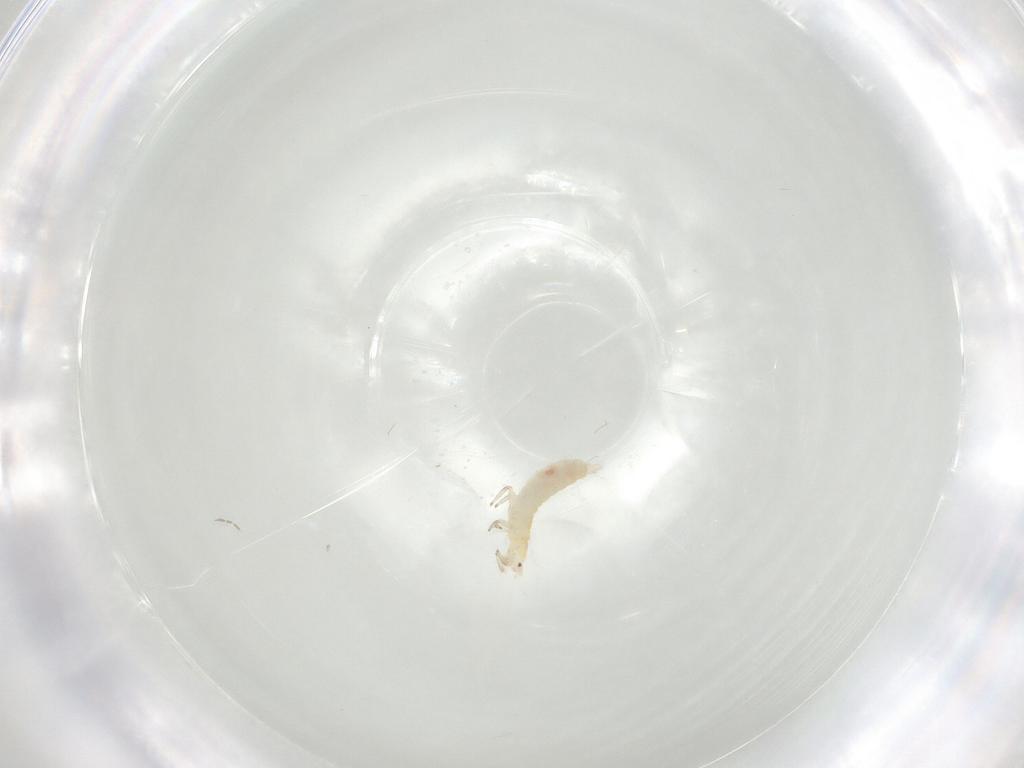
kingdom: Animalia
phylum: Arthropoda
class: Insecta
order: Thysanoptera
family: Aeolothripidae
